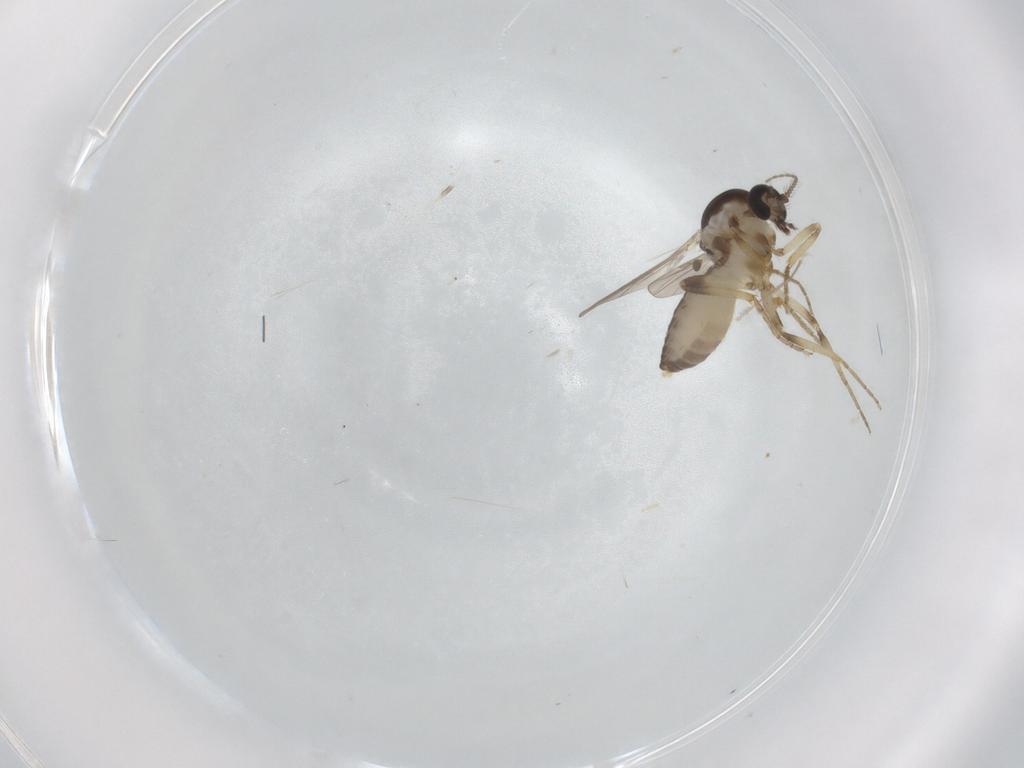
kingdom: Animalia
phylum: Arthropoda
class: Insecta
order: Diptera
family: Ceratopogonidae
